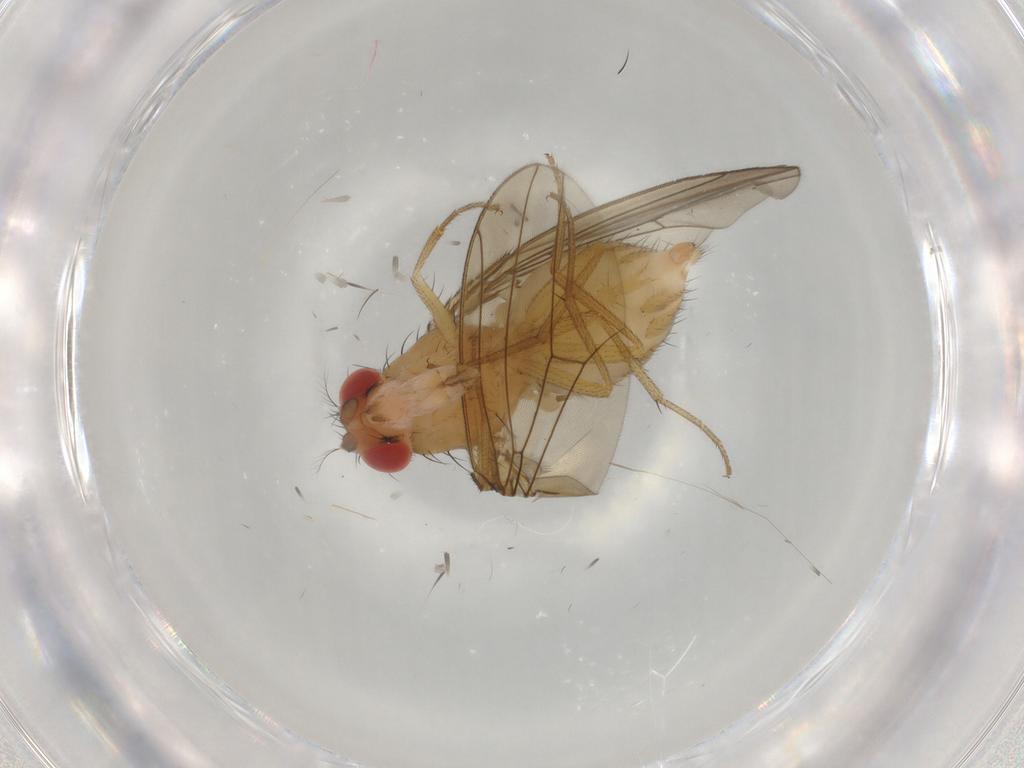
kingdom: Animalia
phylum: Arthropoda
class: Insecta
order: Diptera
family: Drosophilidae
